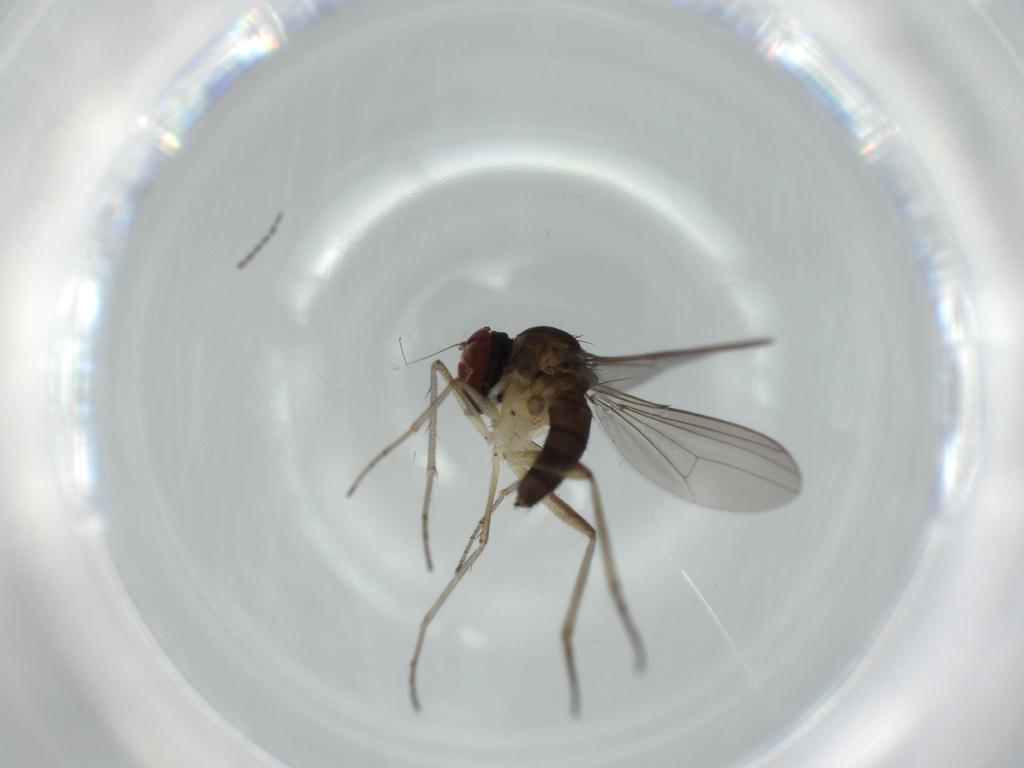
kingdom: Animalia
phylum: Arthropoda
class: Insecta
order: Diptera
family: Dolichopodidae
